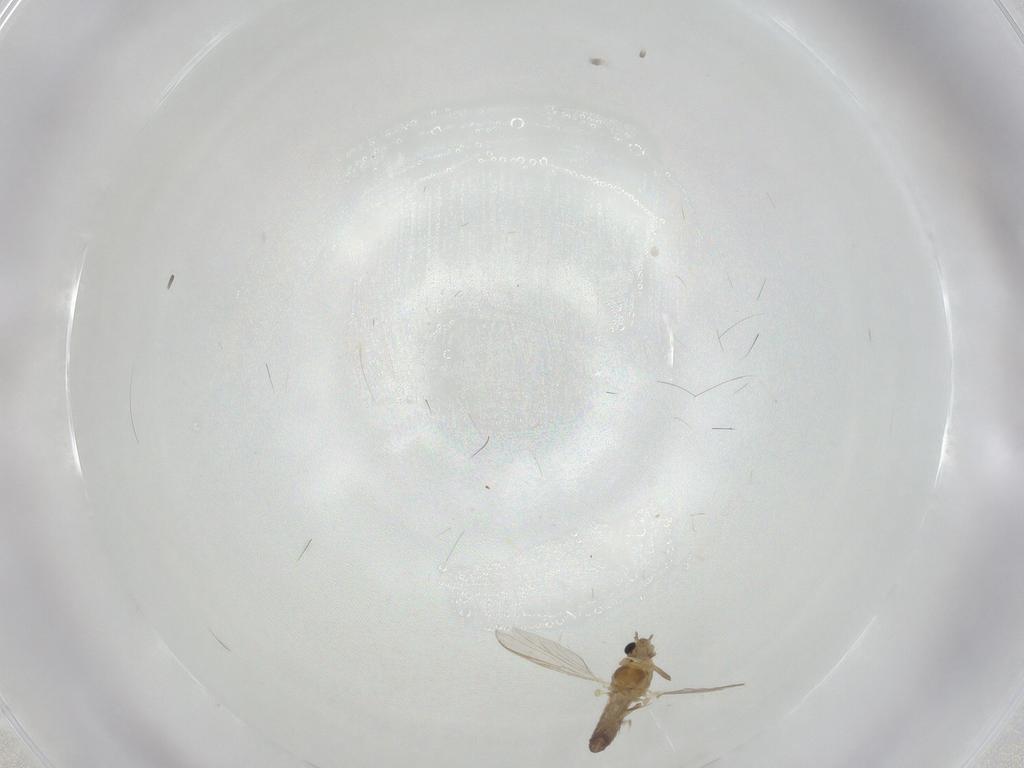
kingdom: Animalia
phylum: Arthropoda
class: Insecta
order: Diptera
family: Chironomidae
